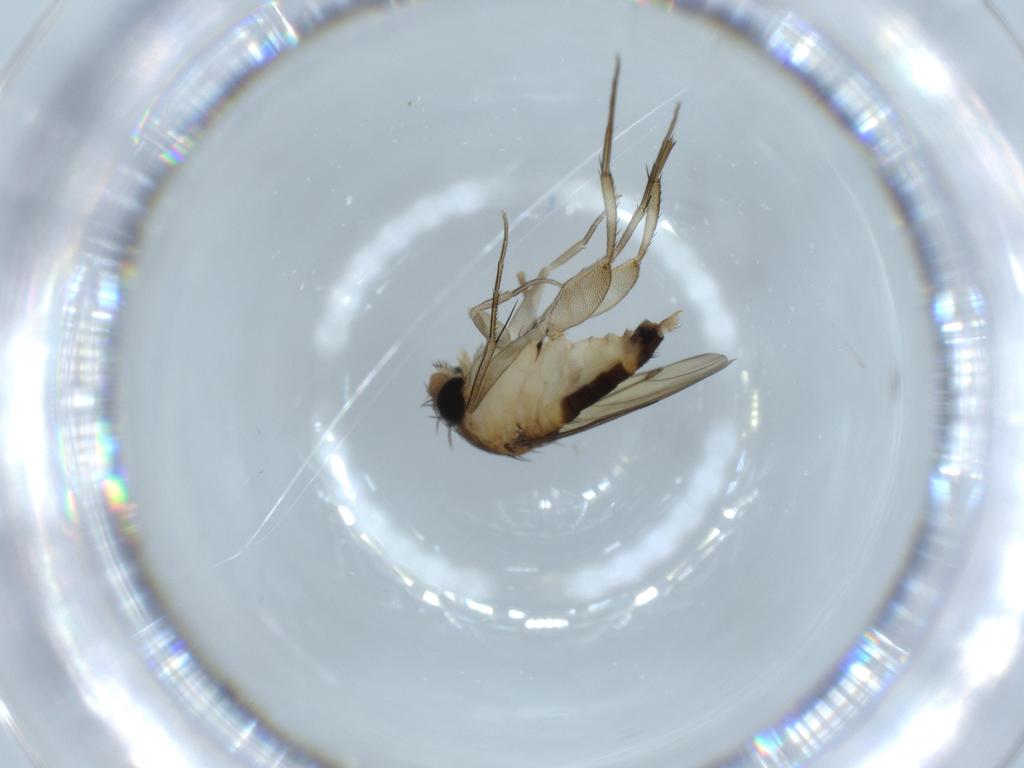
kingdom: Animalia
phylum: Arthropoda
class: Insecta
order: Diptera
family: Phoridae
